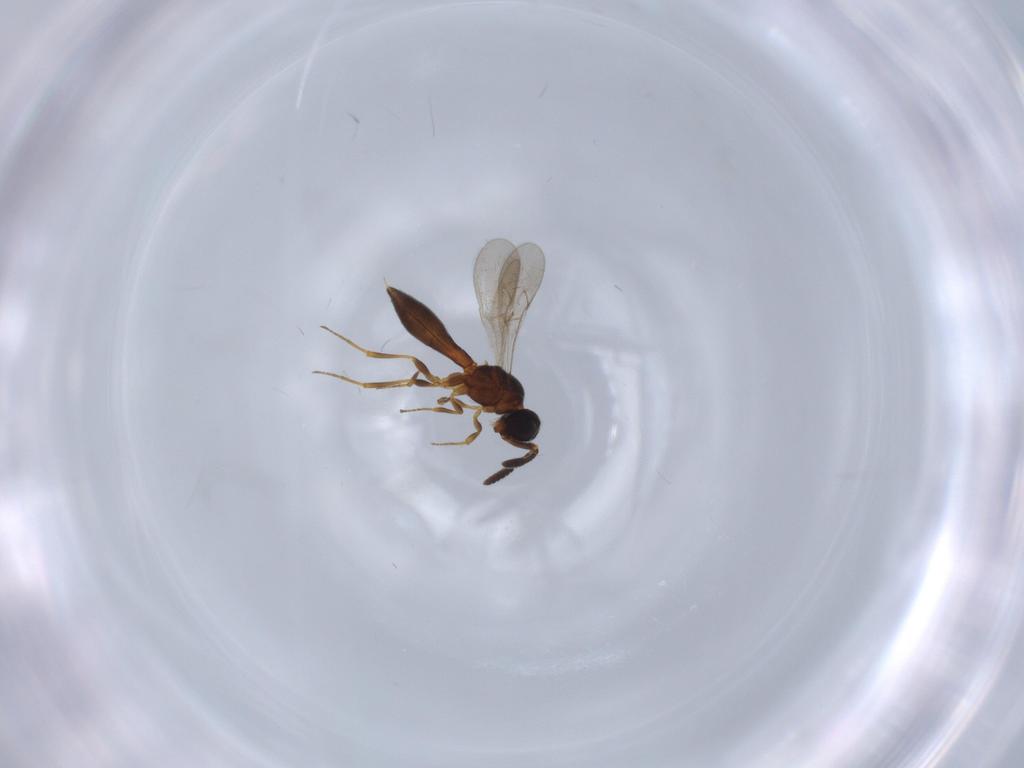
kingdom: Animalia
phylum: Arthropoda
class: Insecta
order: Hymenoptera
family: Scelionidae
